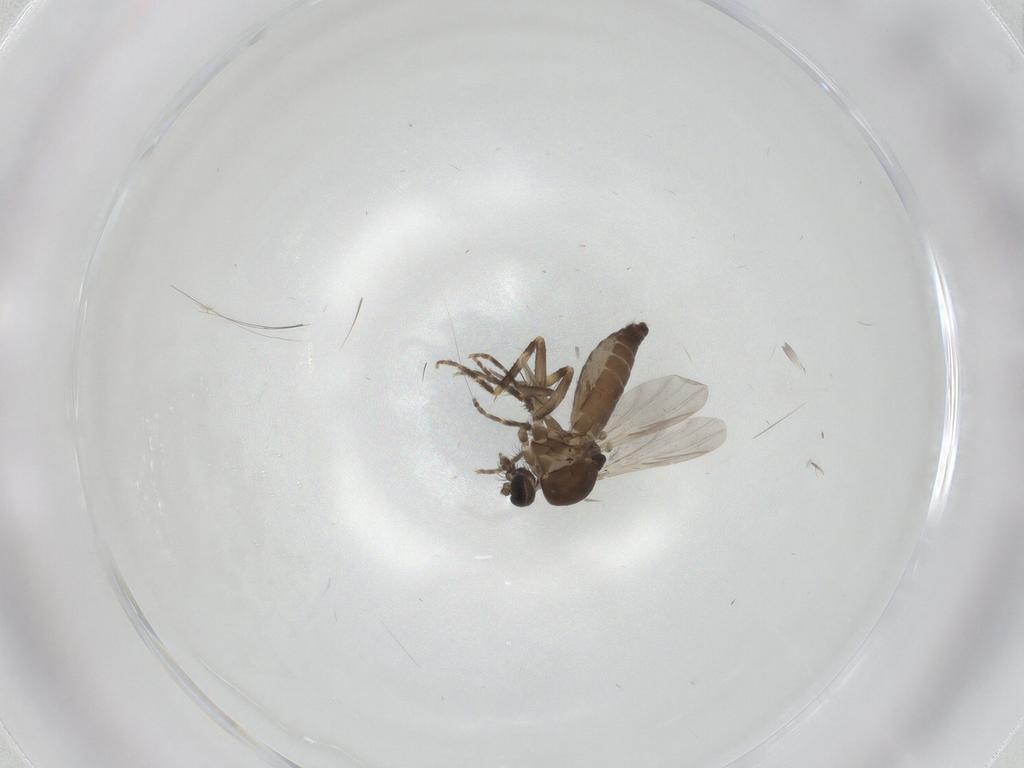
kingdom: Animalia
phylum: Arthropoda
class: Insecta
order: Diptera
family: Ceratopogonidae
